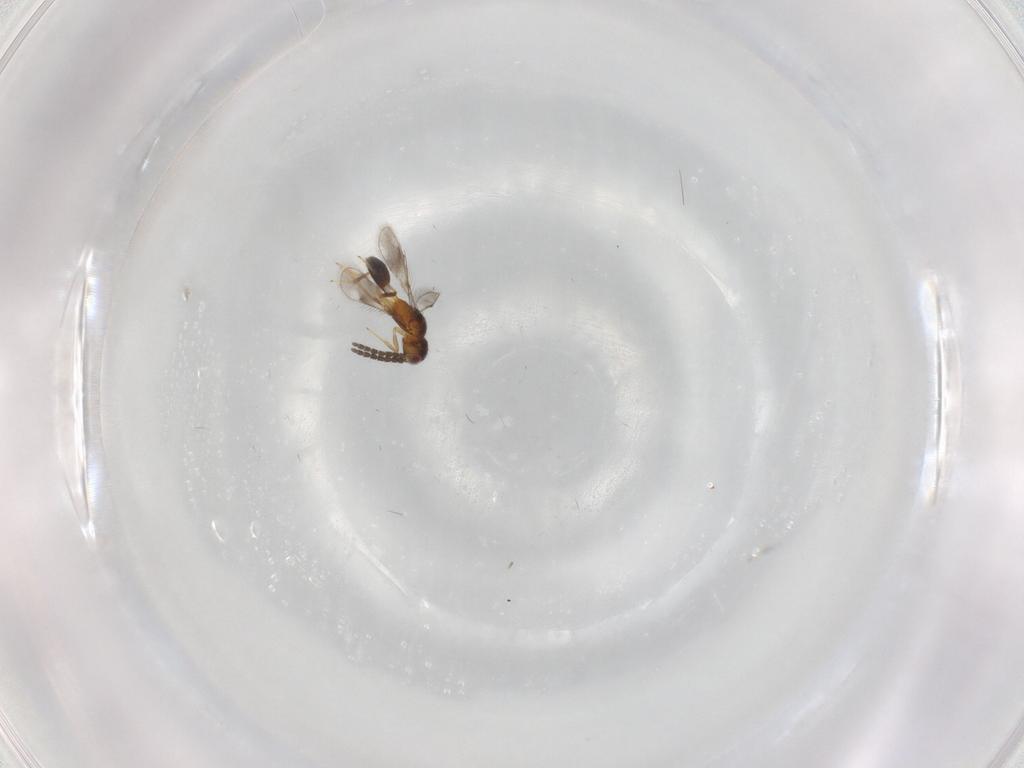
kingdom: Animalia
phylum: Arthropoda
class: Insecta
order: Hymenoptera
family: Pteromalidae
